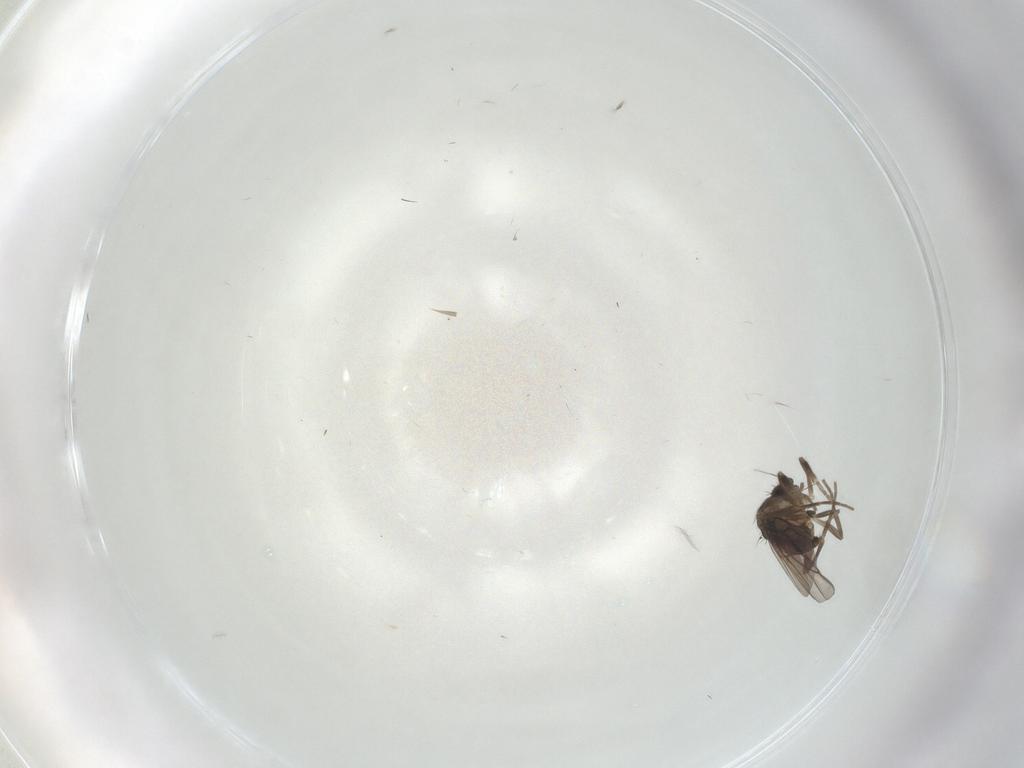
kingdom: Animalia
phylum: Arthropoda
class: Insecta
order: Diptera
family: Phoridae
